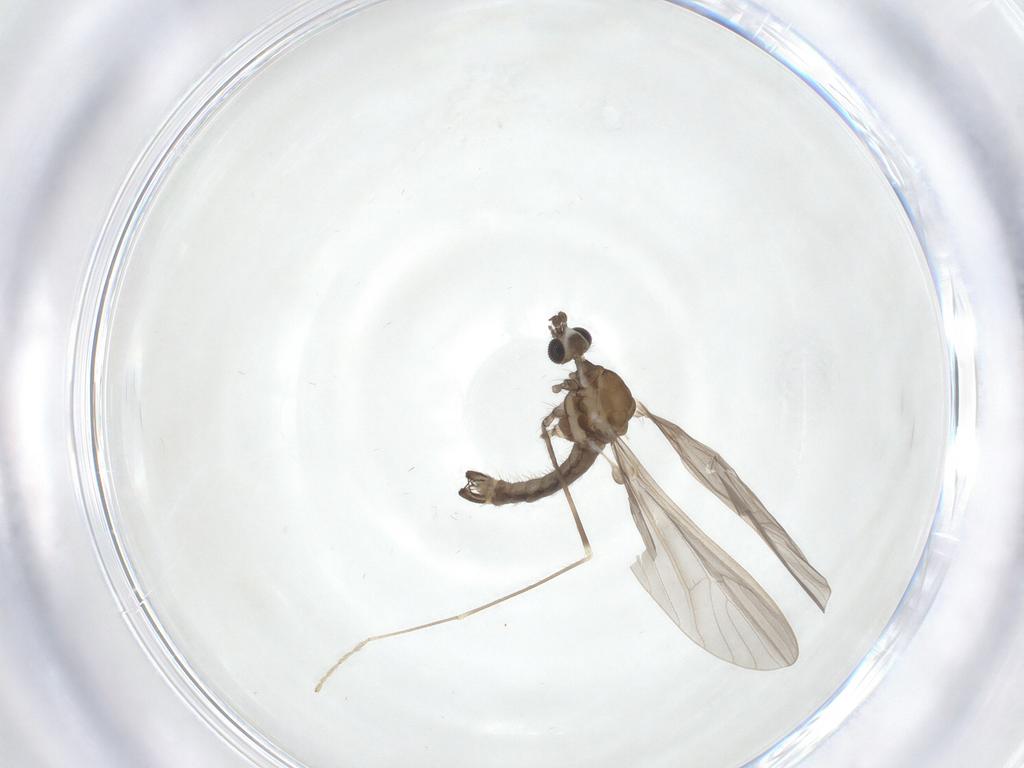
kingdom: Animalia
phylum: Arthropoda
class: Insecta
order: Diptera
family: Limoniidae
